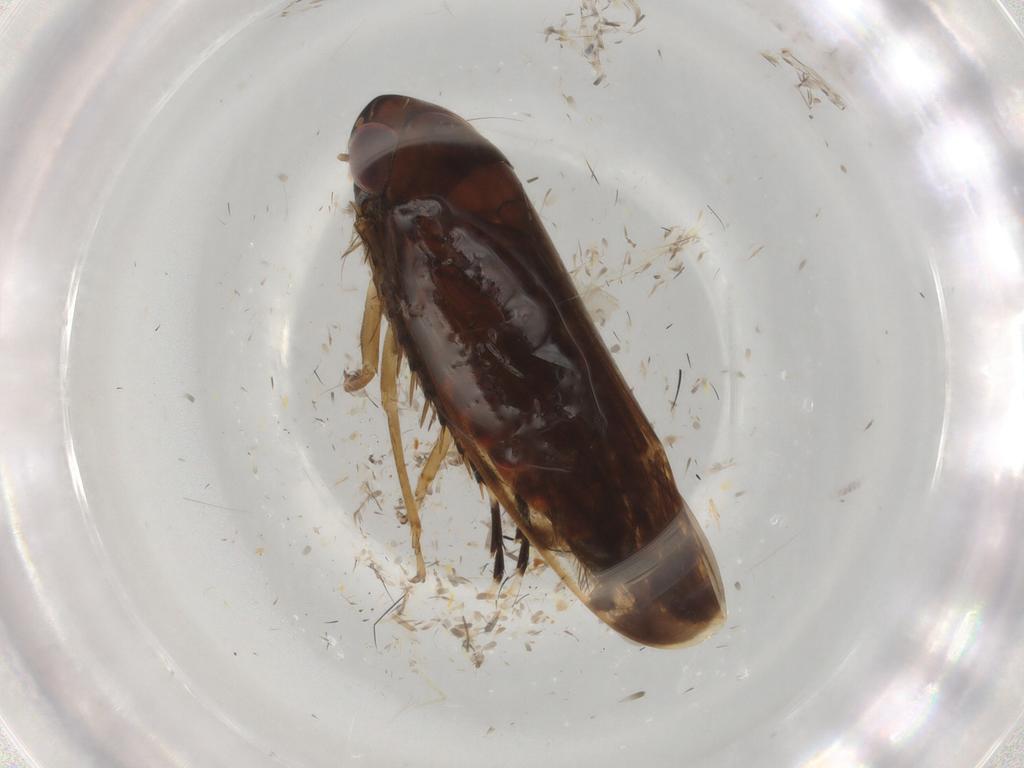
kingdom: Animalia
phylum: Arthropoda
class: Insecta
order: Hemiptera
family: Cicadellidae
